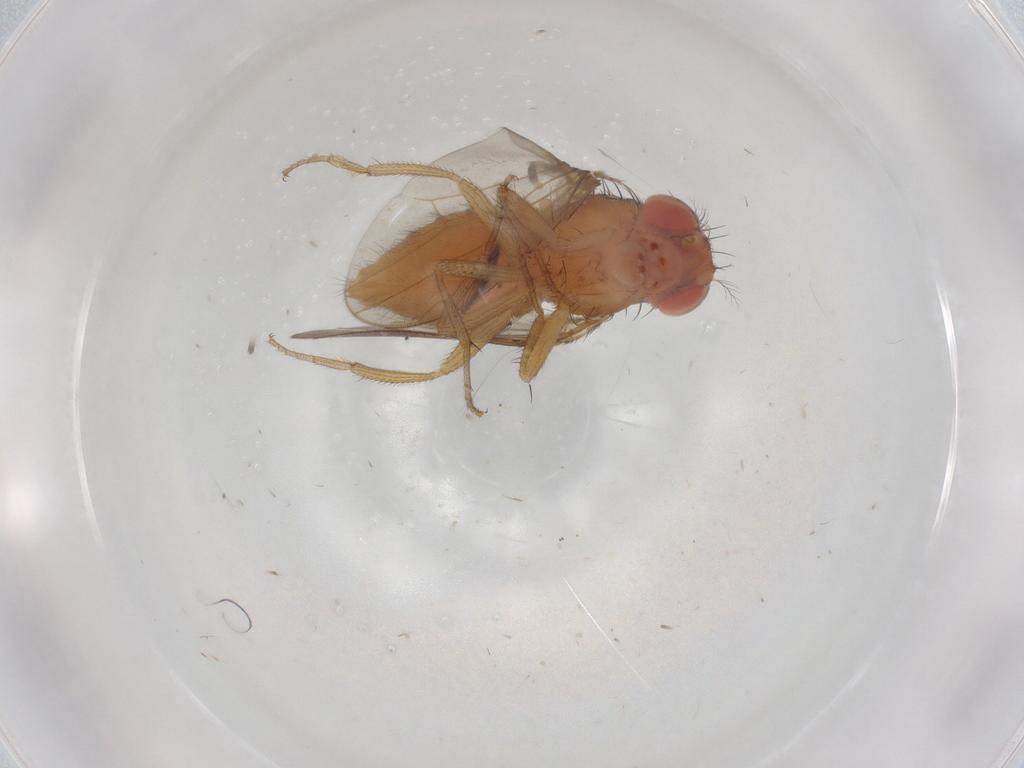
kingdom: Animalia
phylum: Arthropoda
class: Insecta
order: Diptera
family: Drosophilidae
